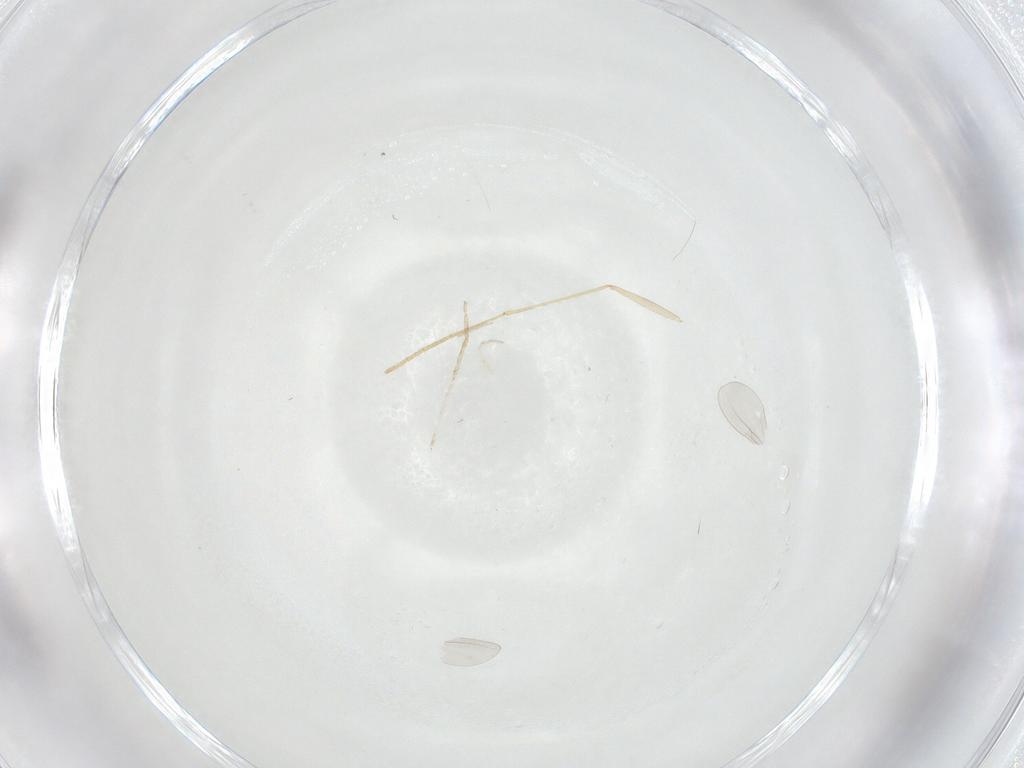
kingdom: Animalia
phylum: Arthropoda
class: Insecta
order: Diptera
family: Cecidomyiidae
